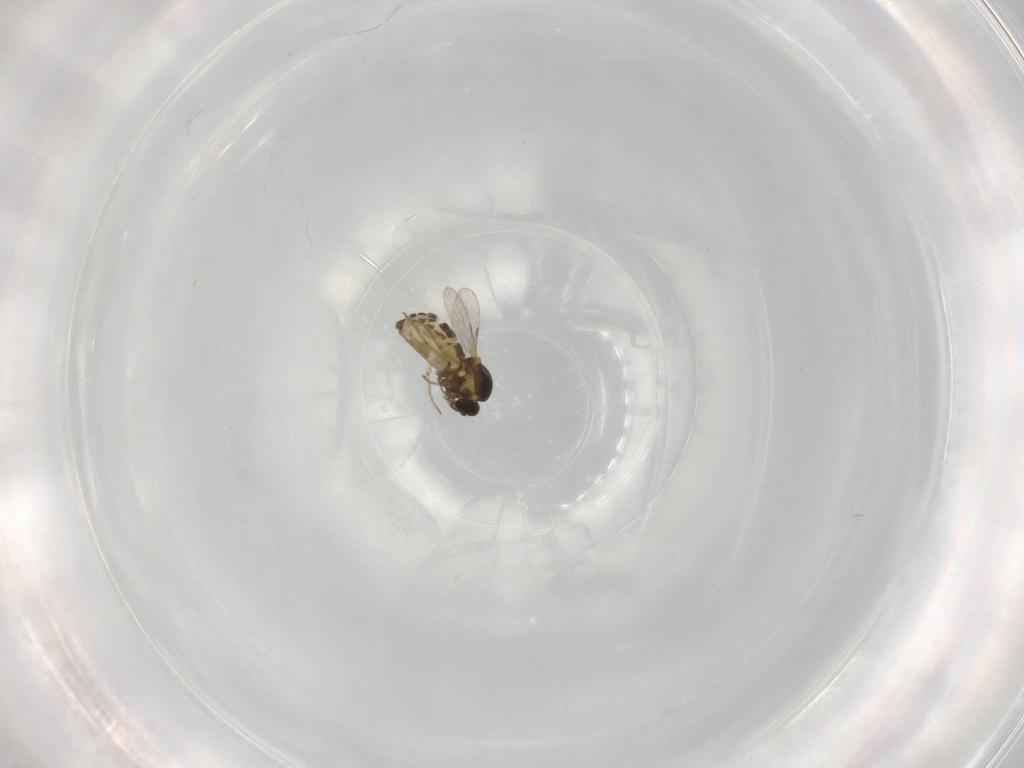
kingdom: Animalia
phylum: Arthropoda
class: Insecta
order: Diptera
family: Ceratopogonidae
